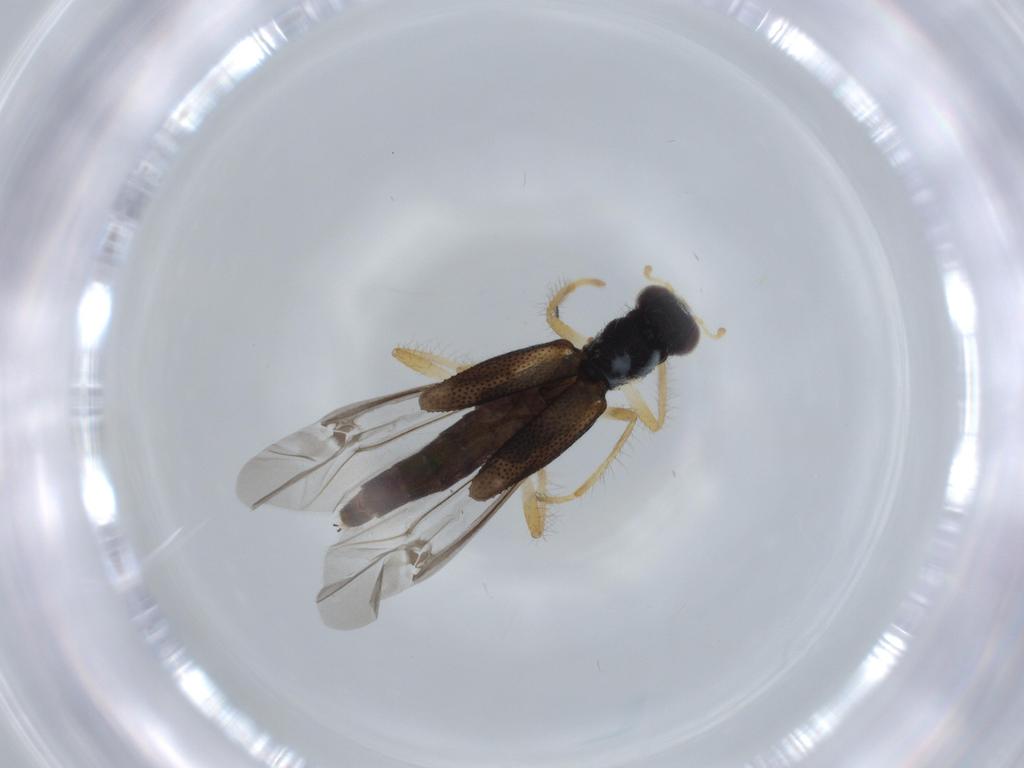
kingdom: Animalia
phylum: Arthropoda
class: Insecta
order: Coleoptera
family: Cleridae
